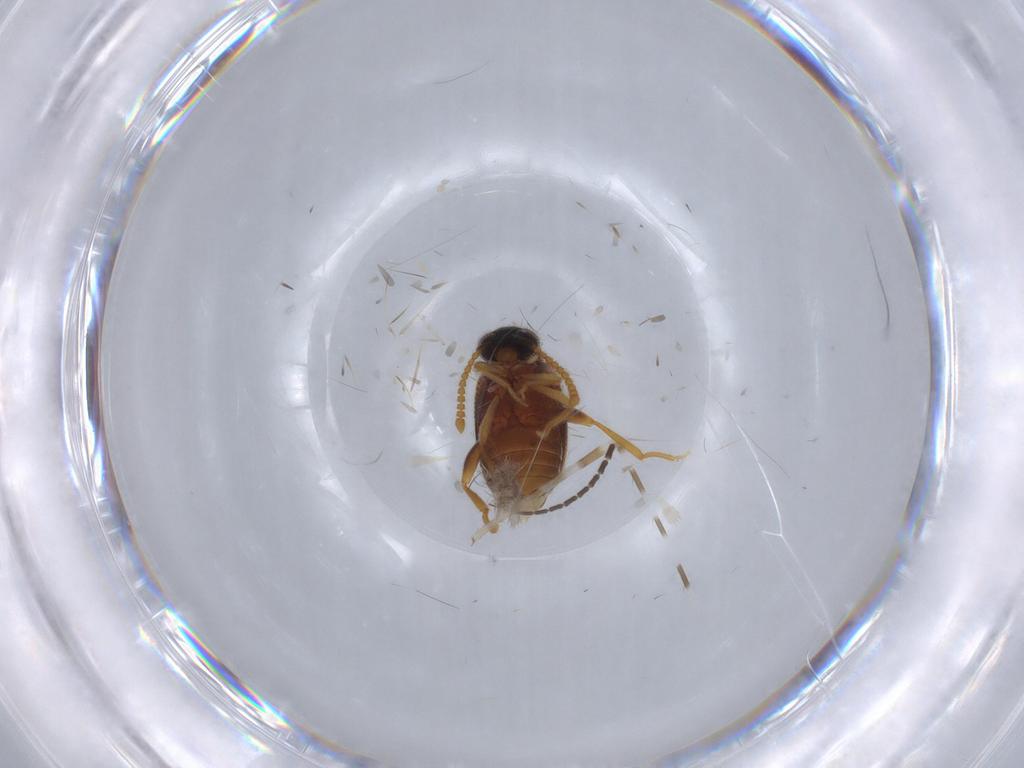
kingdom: Animalia
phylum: Arthropoda
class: Insecta
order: Coleoptera
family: Aderidae
